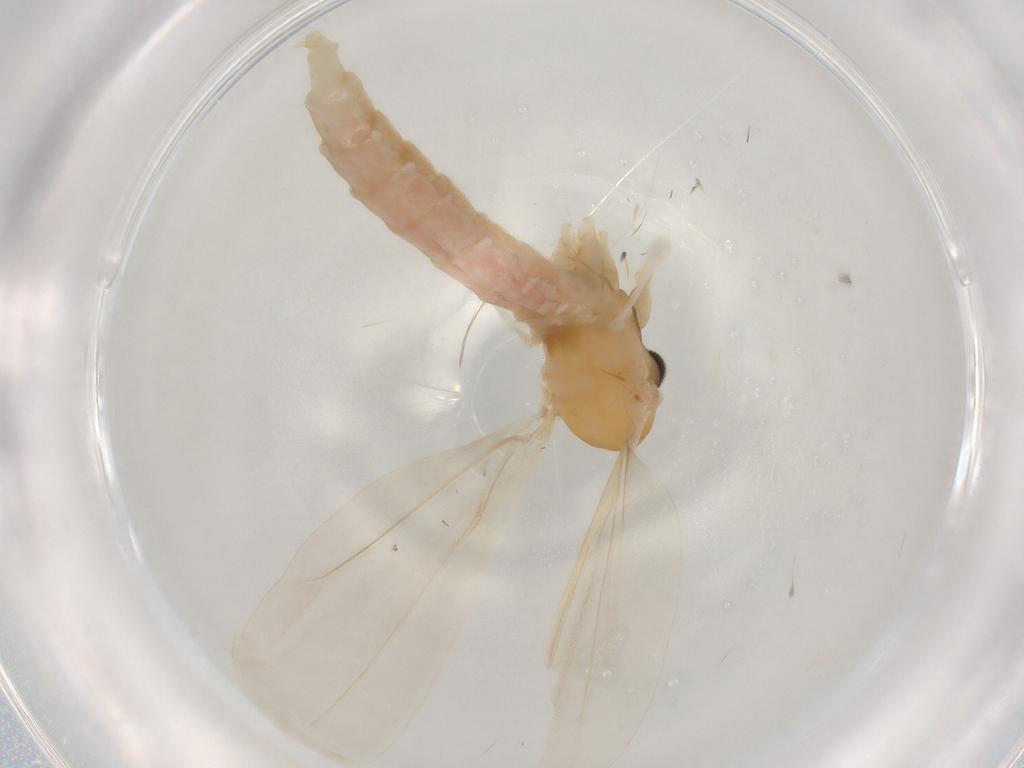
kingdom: Animalia
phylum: Arthropoda
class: Insecta
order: Diptera
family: Cecidomyiidae
